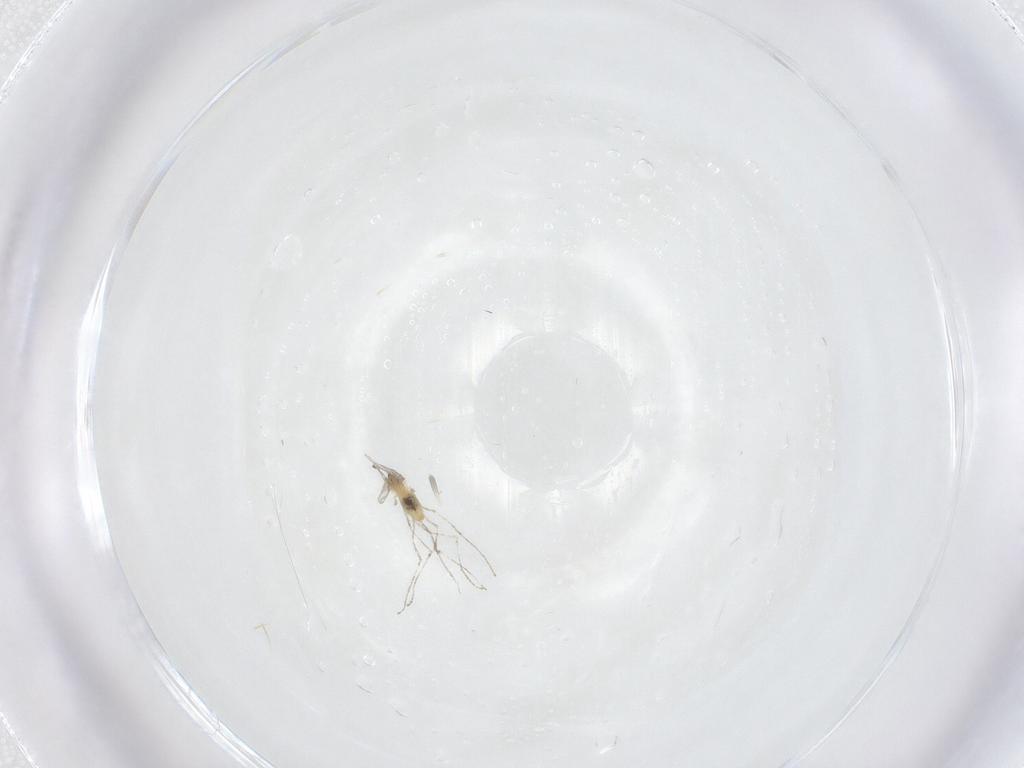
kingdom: Animalia
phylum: Arthropoda
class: Insecta
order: Diptera
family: Cecidomyiidae
